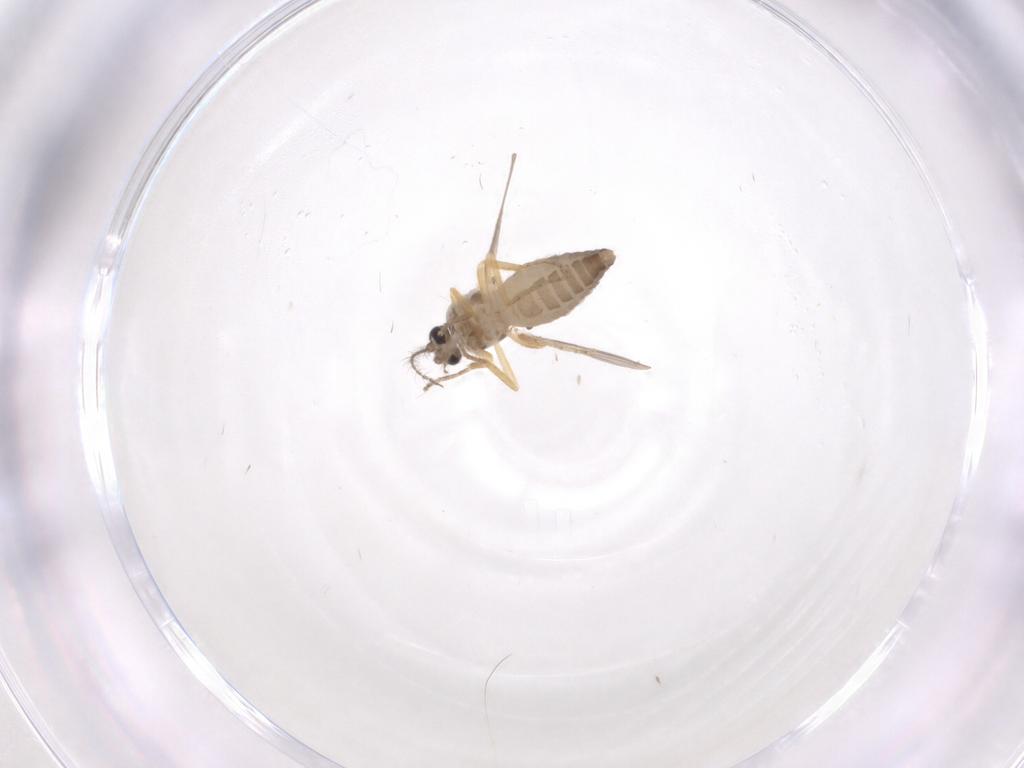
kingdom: Animalia
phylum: Arthropoda
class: Insecta
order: Diptera
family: Ceratopogonidae
